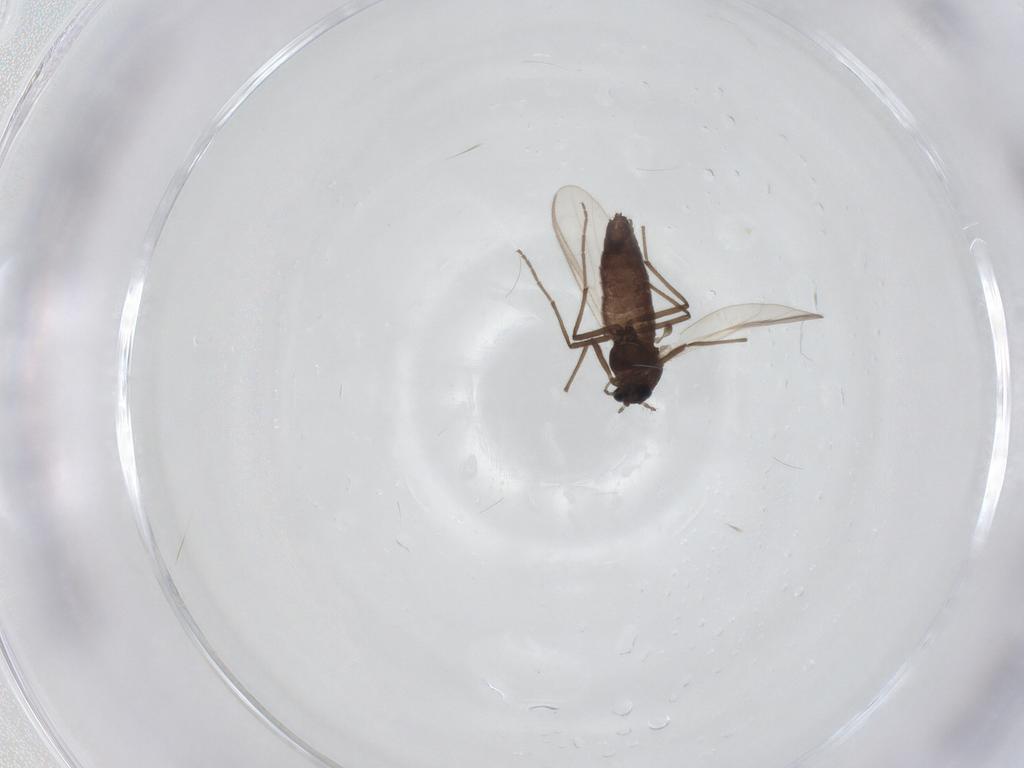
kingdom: Animalia
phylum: Arthropoda
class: Insecta
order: Diptera
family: Chironomidae
